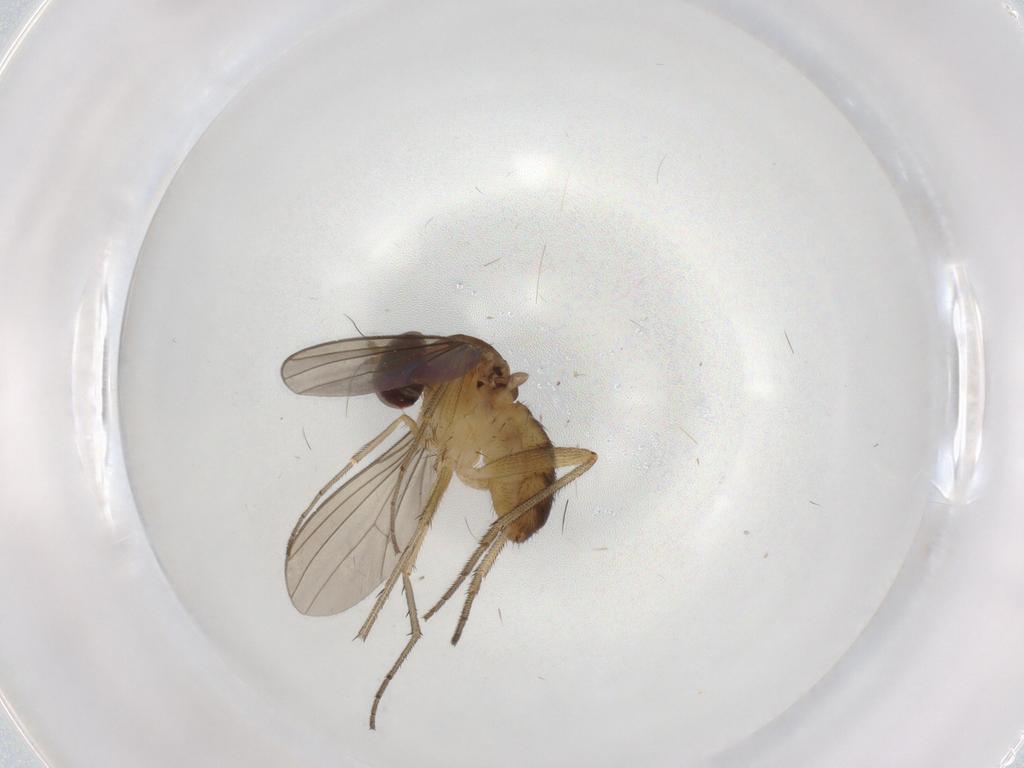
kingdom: Animalia
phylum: Arthropoda
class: Insecta
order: Diptera
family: Dolichopodidae
